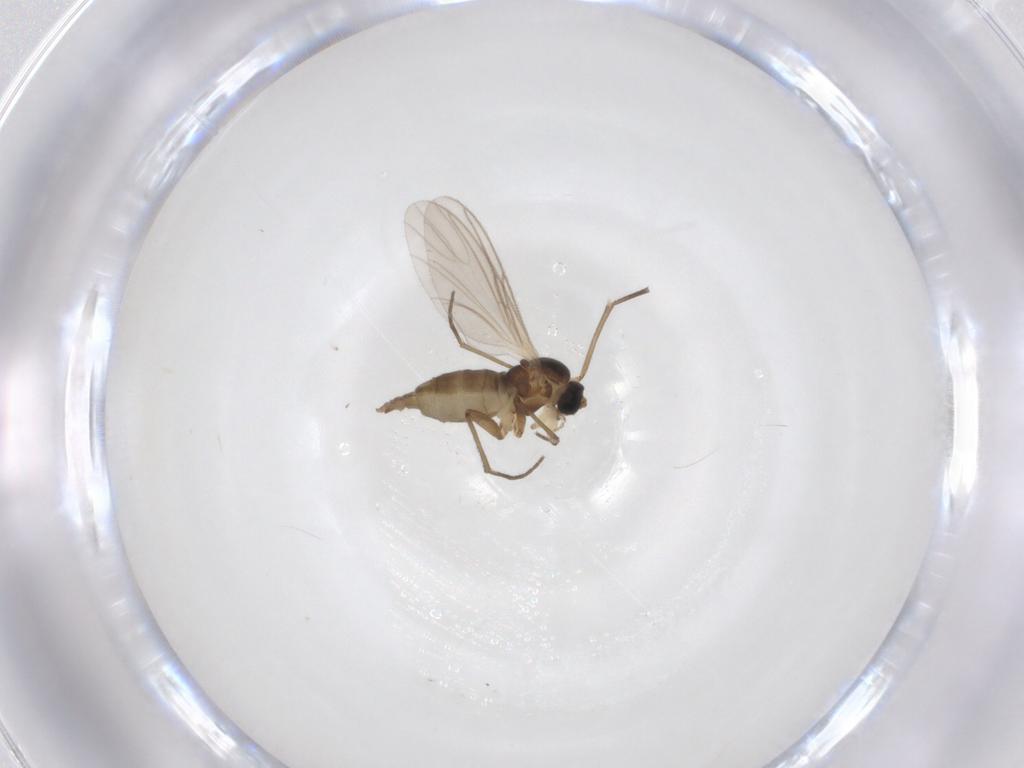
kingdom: Animalia
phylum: Arthropoda
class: Insecta
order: Diptera
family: Sciaridae
